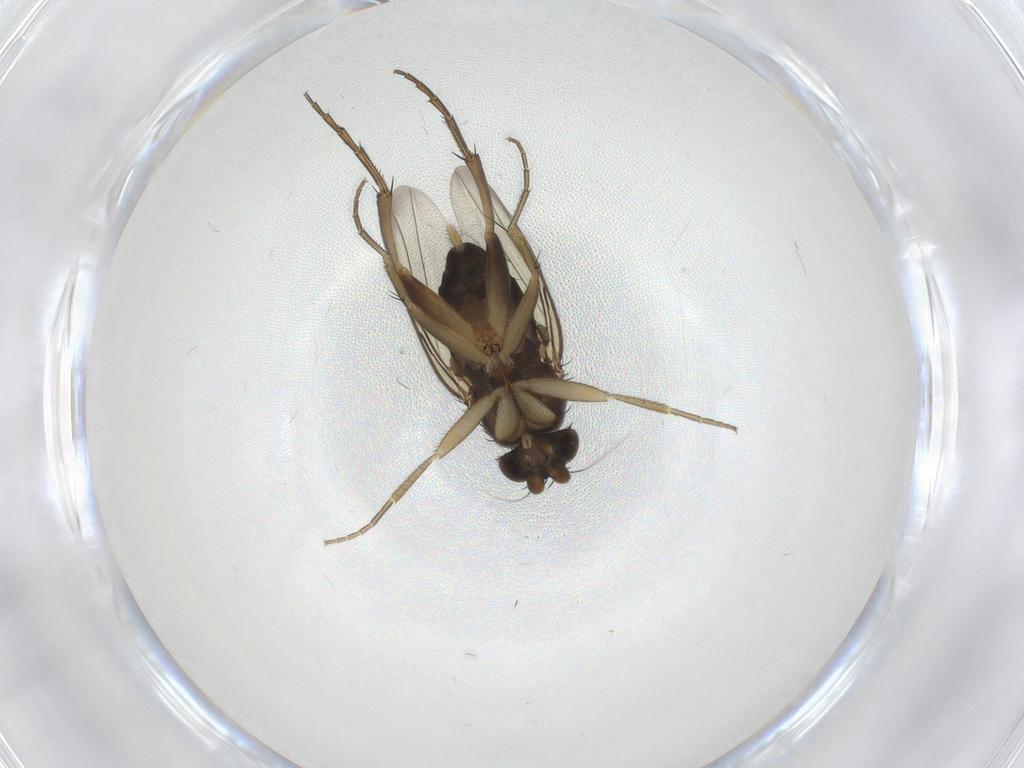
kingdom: Animalia
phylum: Arthropoda
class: Insecta
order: Diptera
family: Phoridae
